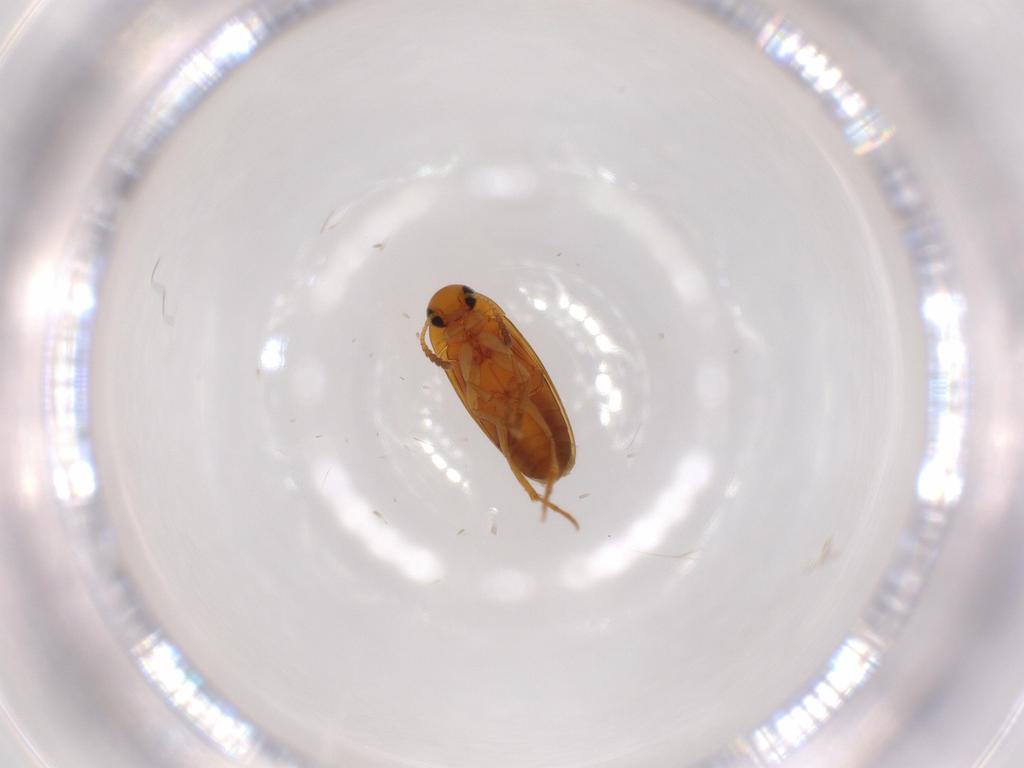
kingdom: Animalia
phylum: Arthropoda
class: Insecta
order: Coleoptera
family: Scraptiidae
